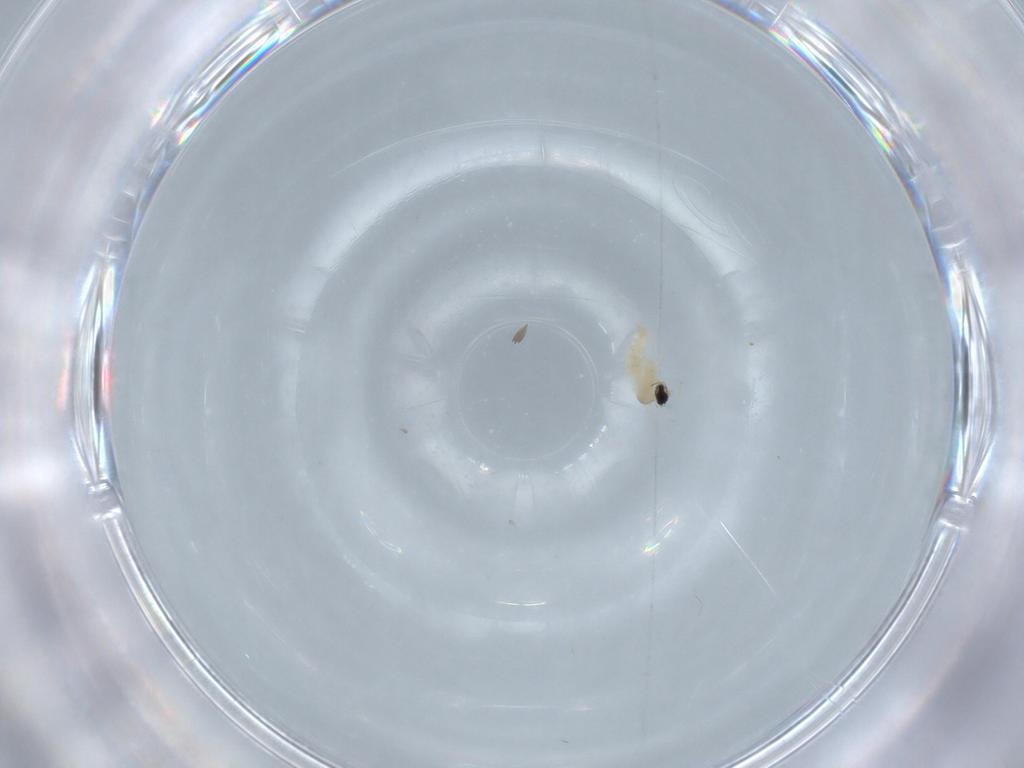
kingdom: Animalia
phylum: Arthropoda
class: Insecta
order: Diptera
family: Cecidomyiidae
